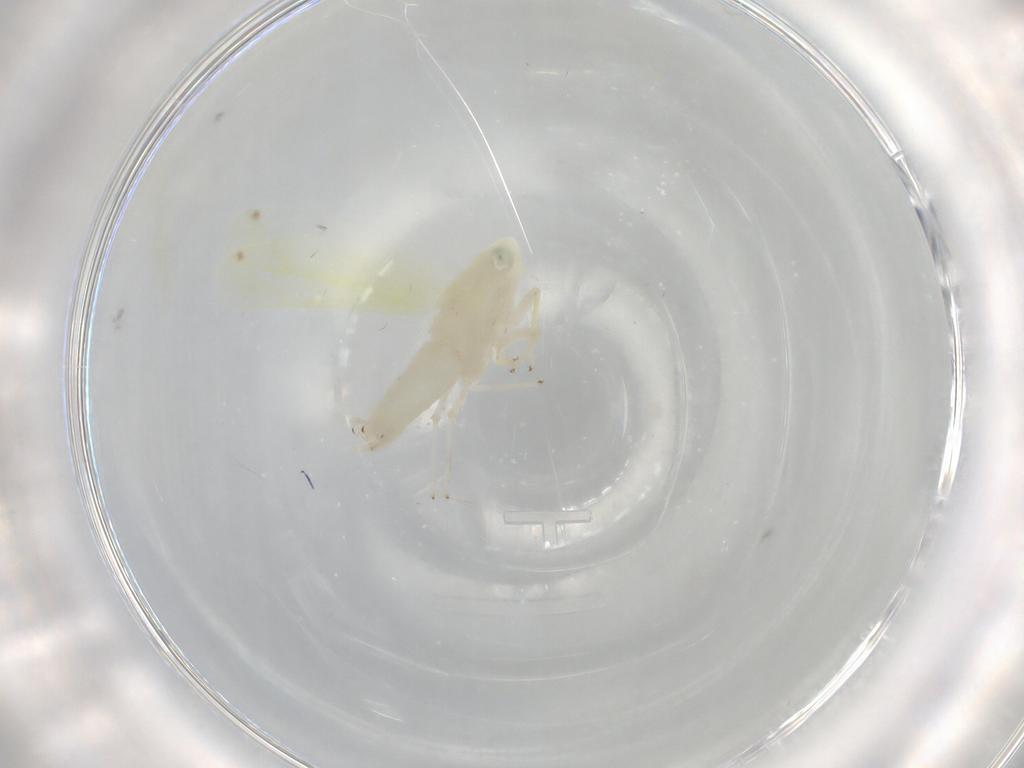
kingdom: Animalia
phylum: Arthropoda
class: Insecta
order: Hemiptera
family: Cicadellidae
